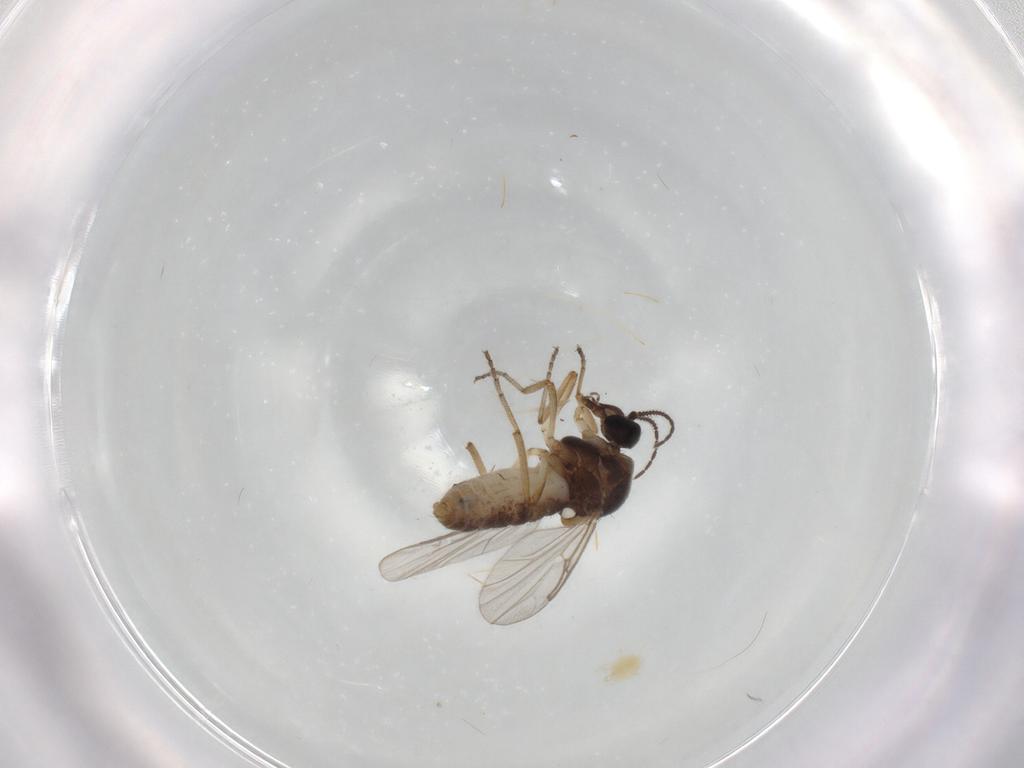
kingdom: Animalia
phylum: Arthropoda
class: Insecta
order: Diptera
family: Ceratopogonidae
